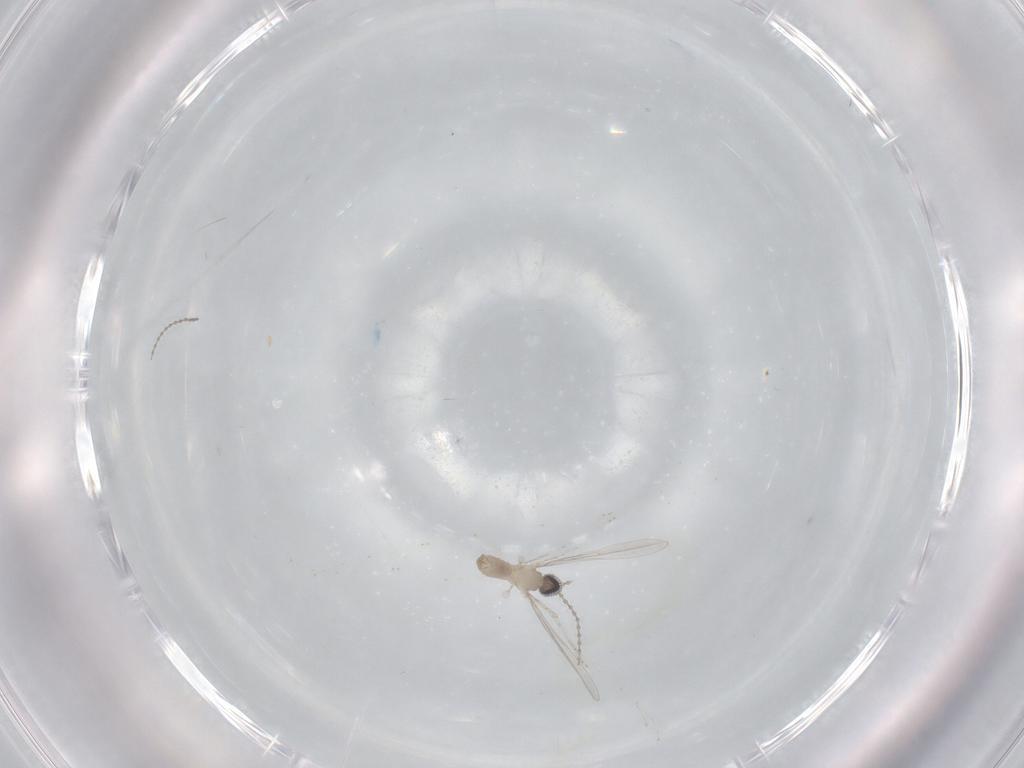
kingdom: Animalia
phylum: Arthropoda
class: Insecta
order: Diptera
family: Cecidomyiidae
